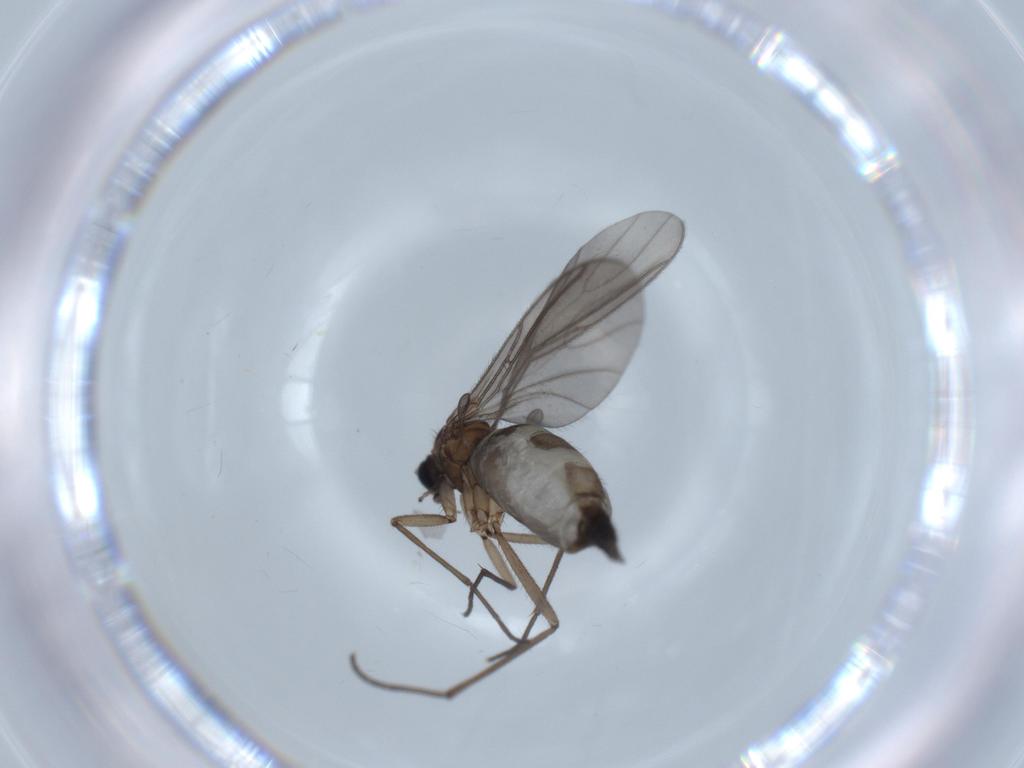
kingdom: Animalia
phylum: Arthropoda
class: Insecta
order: Diptera
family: Sciaridae
